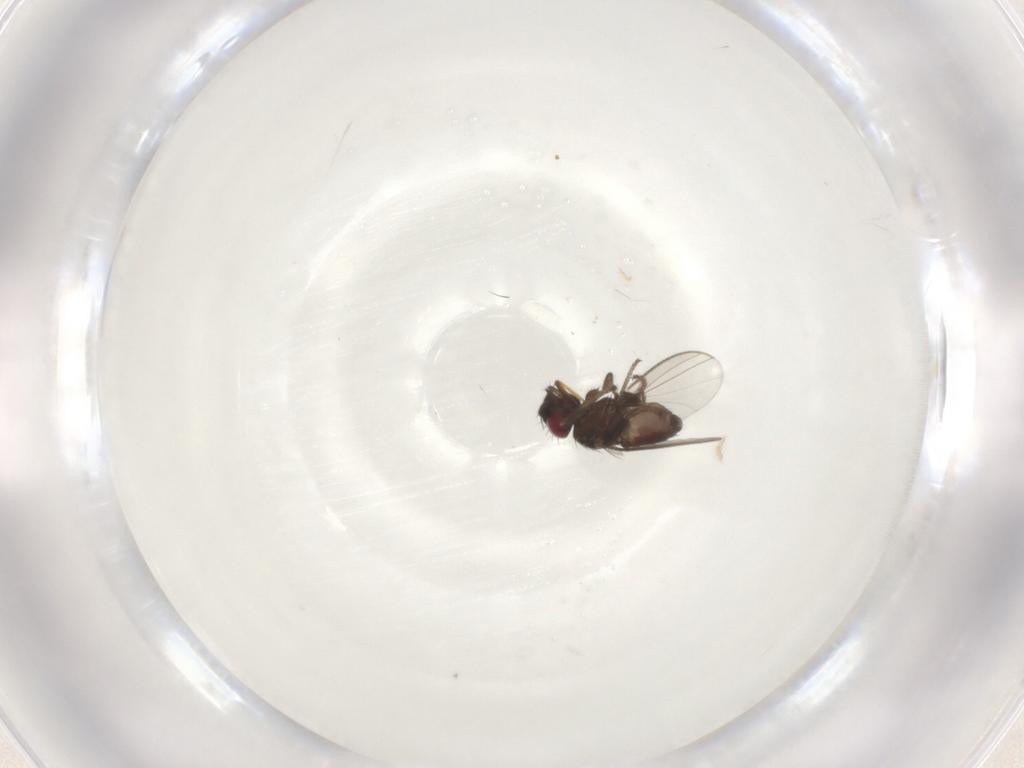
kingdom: Animalia
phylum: Arthropoda
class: Insecta
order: Diptera
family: Milichiidae
